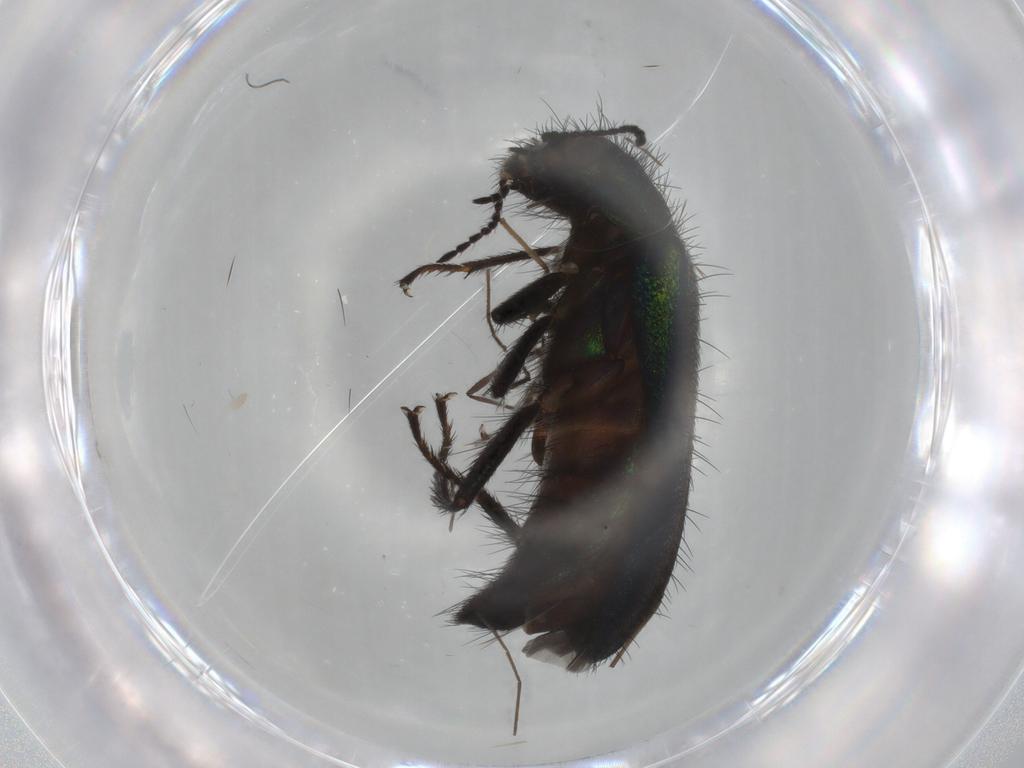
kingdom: Animalia
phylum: Arthropoda
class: Insecta
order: Coleoptera
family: Melyridae
